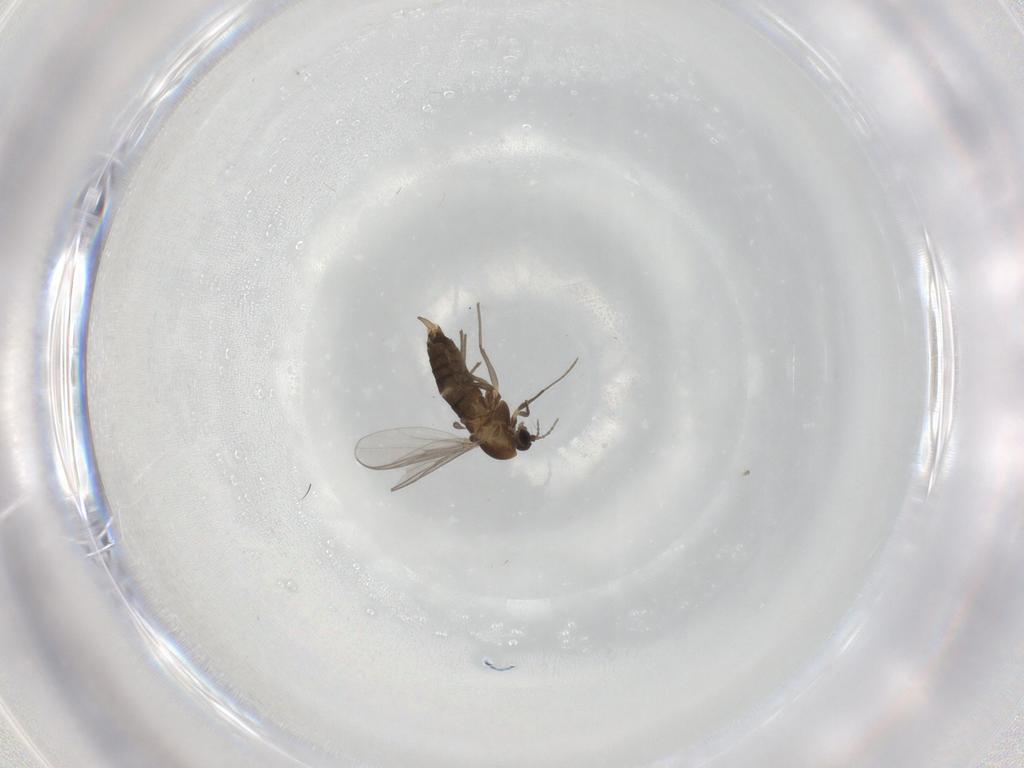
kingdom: Animalia
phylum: Arthropoda
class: Insecta
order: Diptera
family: Chironomidae
